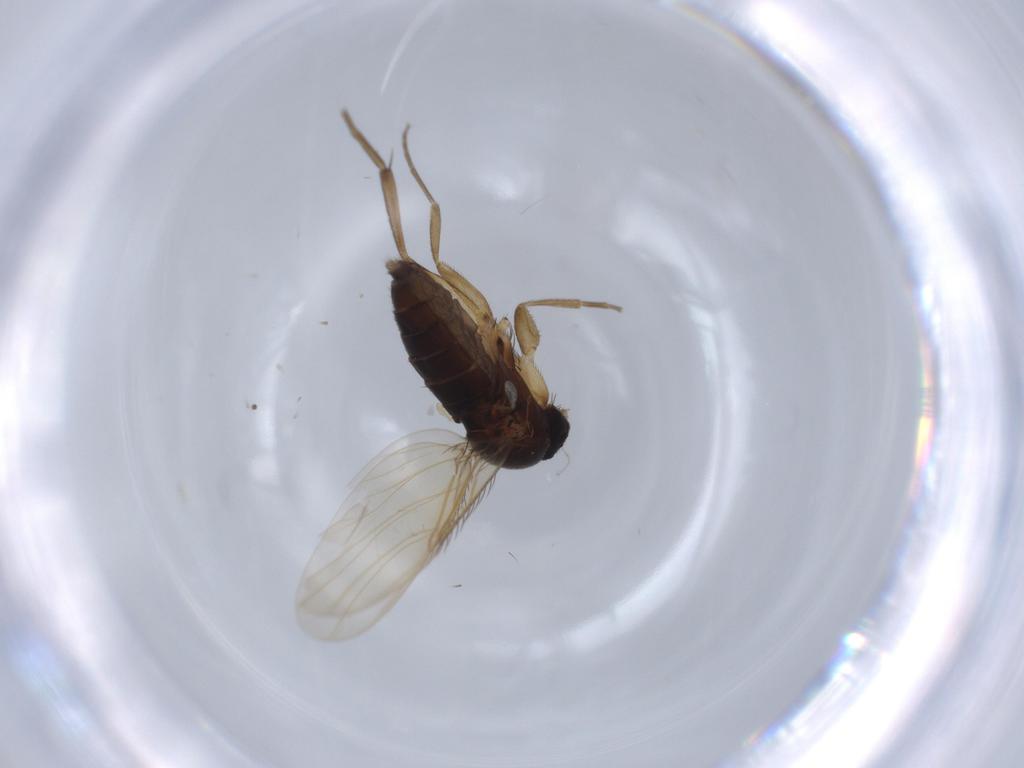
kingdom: Animalia
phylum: Arthropoda
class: Insecta
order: Diptera
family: Phoridae
